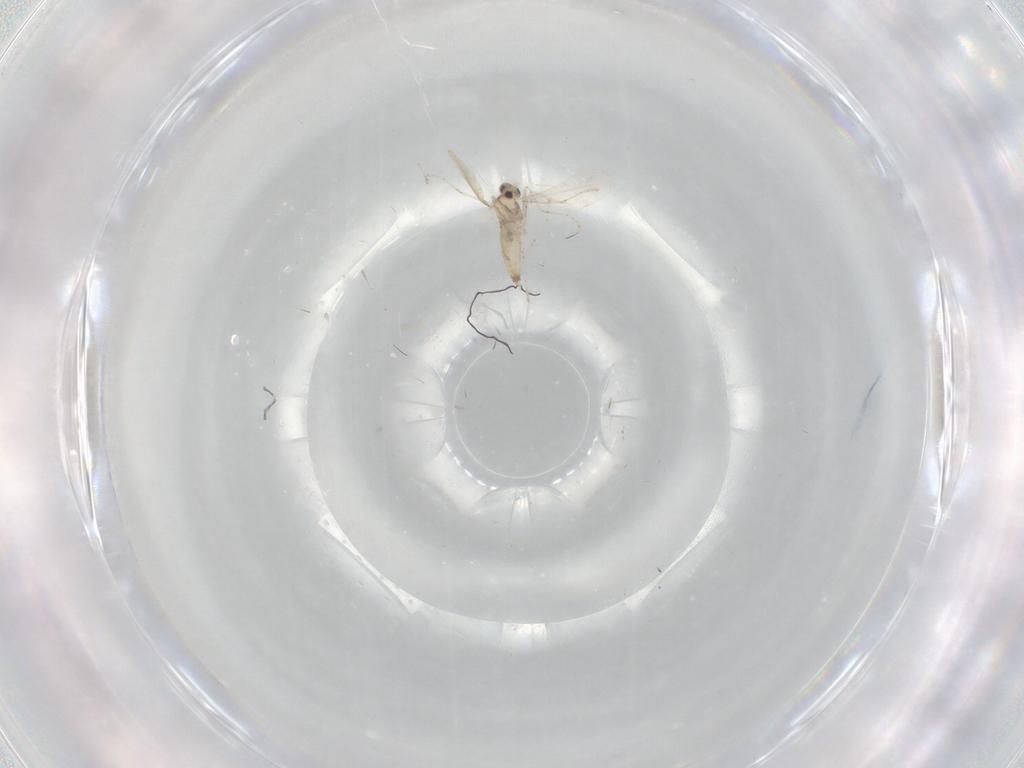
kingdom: Animalia
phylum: Arthropoda
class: Insecta
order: Diptera
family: Cecidomyiidae
